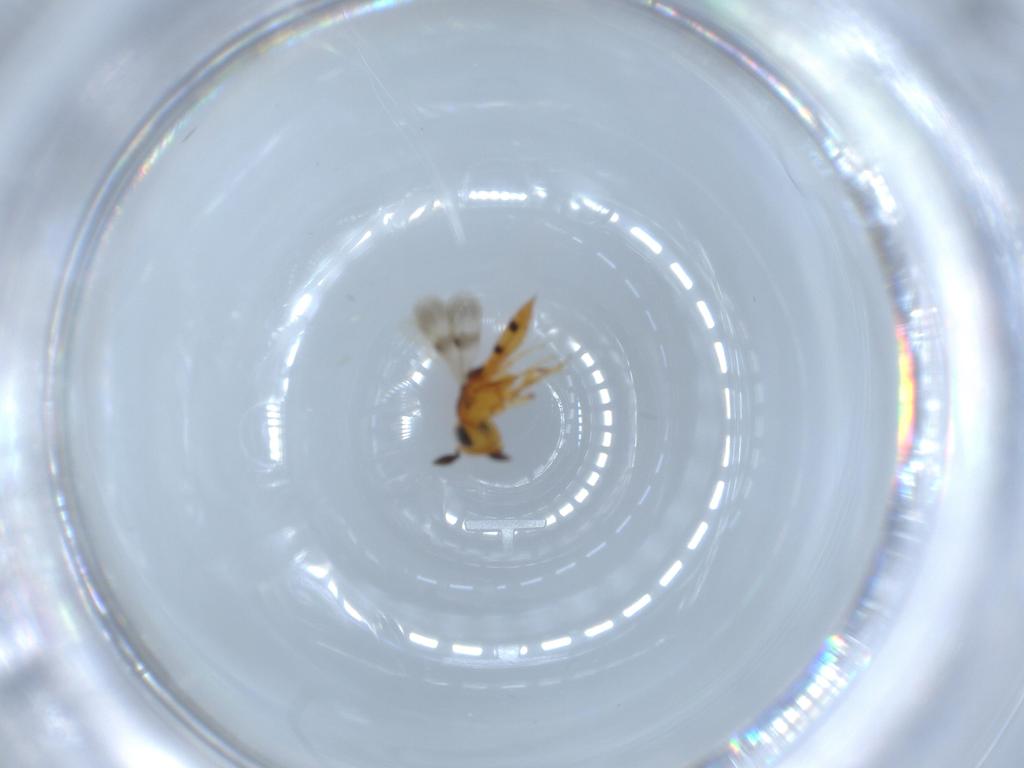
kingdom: Animalia
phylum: Arthropoda
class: Insecta
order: Hymenoptera
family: Scelionidae
